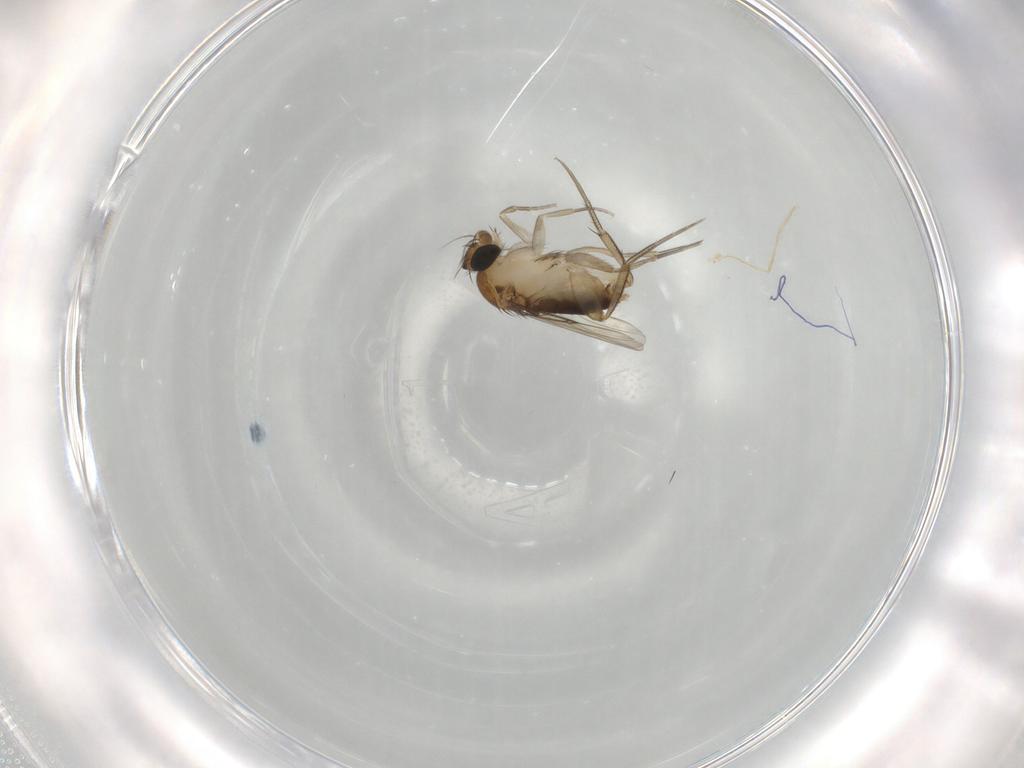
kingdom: Animalia
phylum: Arthropoda
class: Insecta
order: Diptera
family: Phoridae
